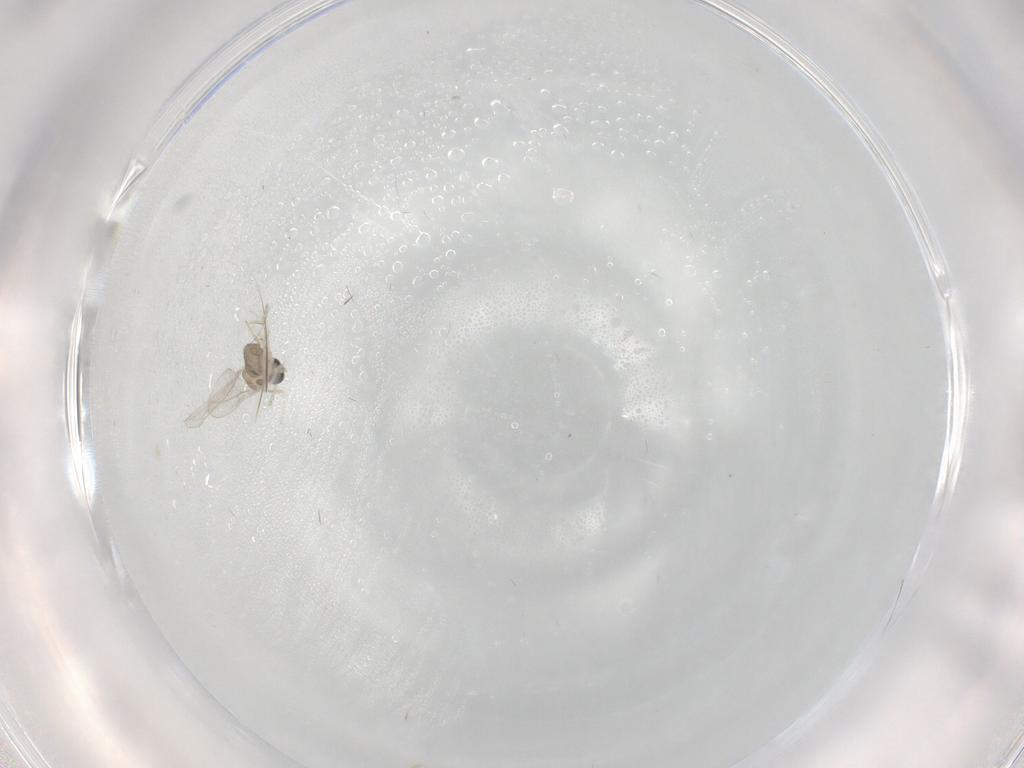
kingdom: Animalia
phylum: Arthropoda
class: Insecta
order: Diptera
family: Cecidomyiidae
